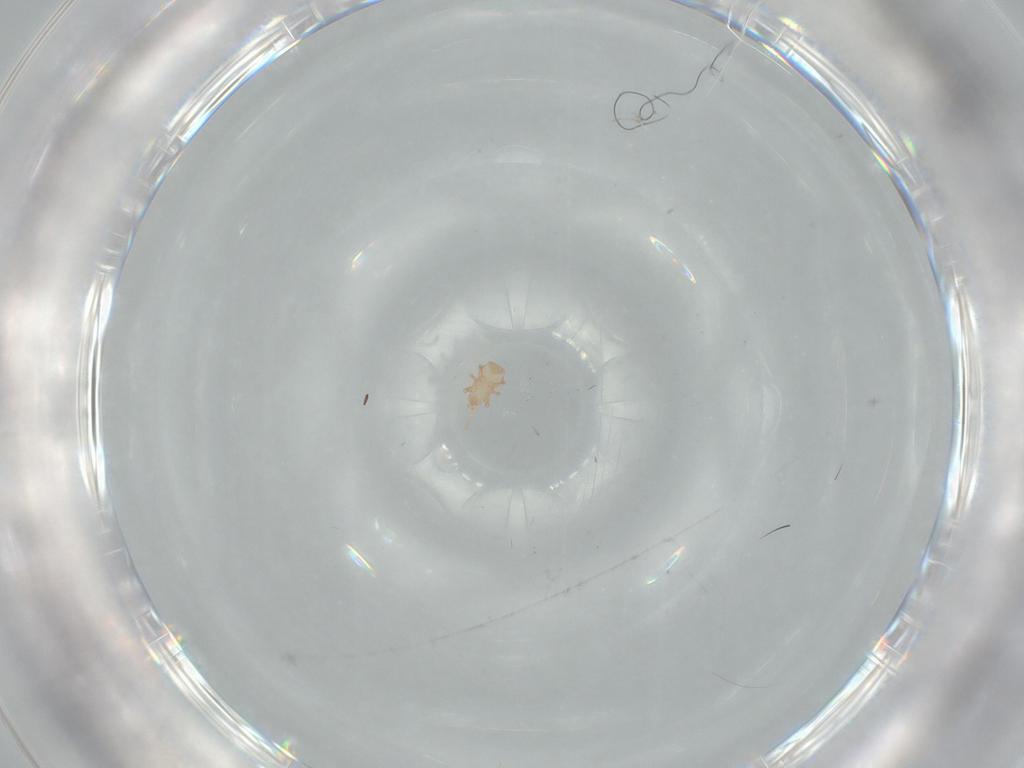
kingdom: Animalia
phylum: Arthropoda
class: Arachnida
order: Mesostigmata
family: Digamasellidae
